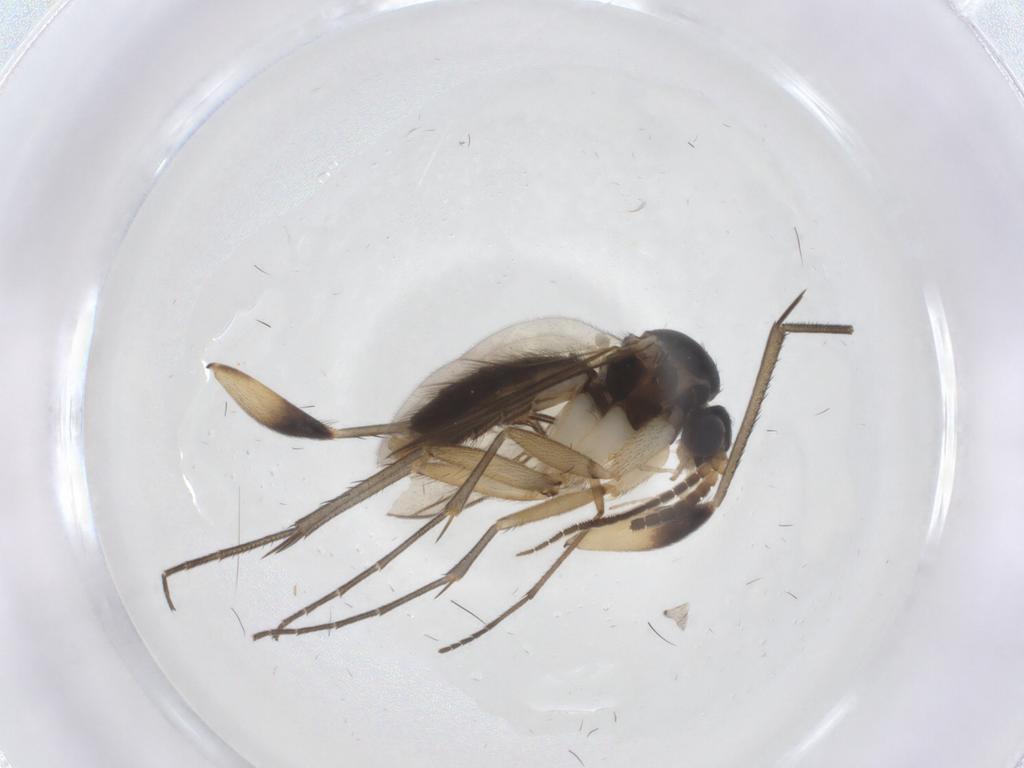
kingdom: Animalia
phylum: Arthropoda
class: Insecta
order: Diptera
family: Mycetophilidae
